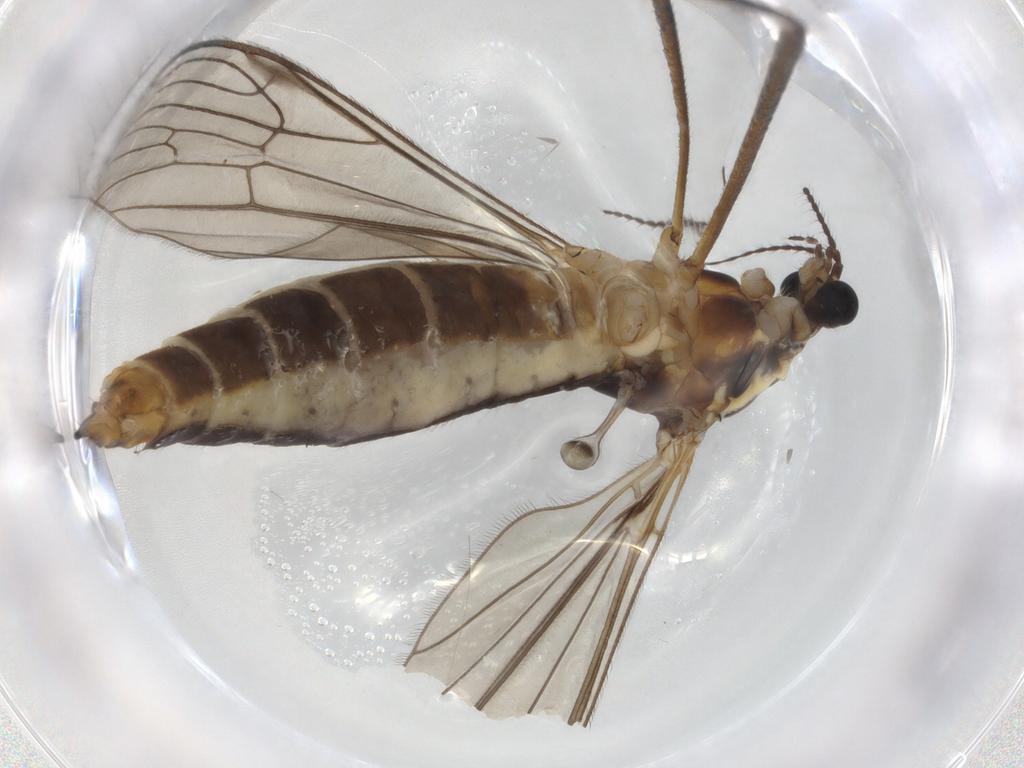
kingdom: Animalia
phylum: Arthropoda
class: Insecta
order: Diptera
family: Limoniidae
